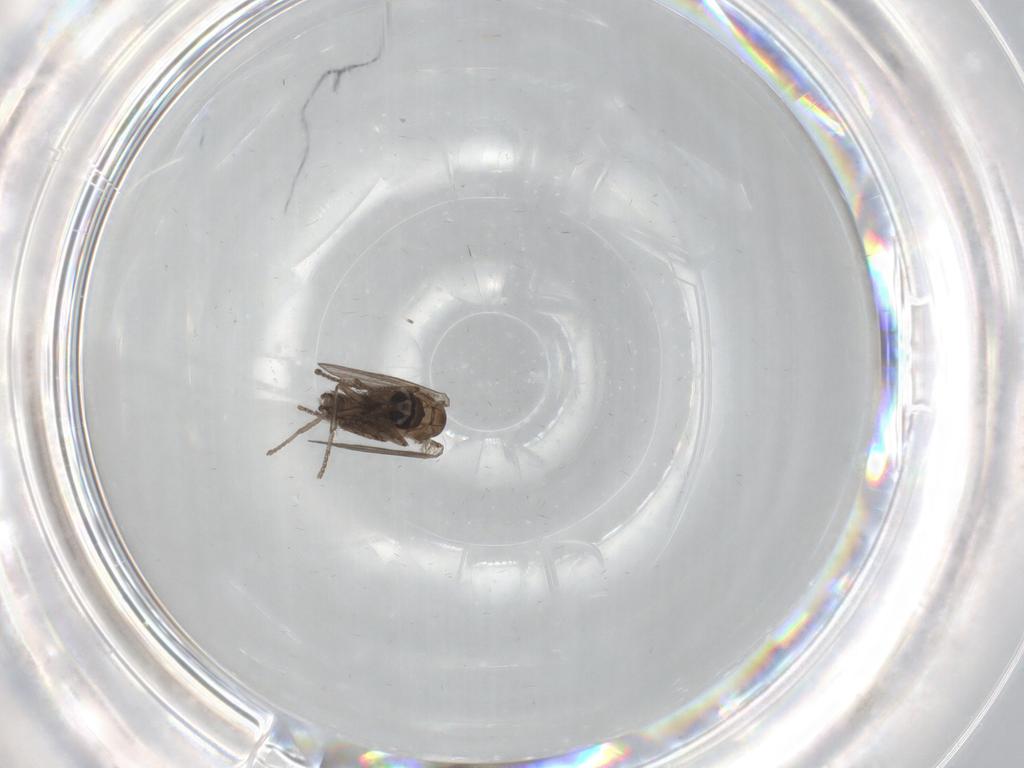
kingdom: Animalia
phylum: Arthropoda
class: Insecta
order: Diptera
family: Psychodidae
